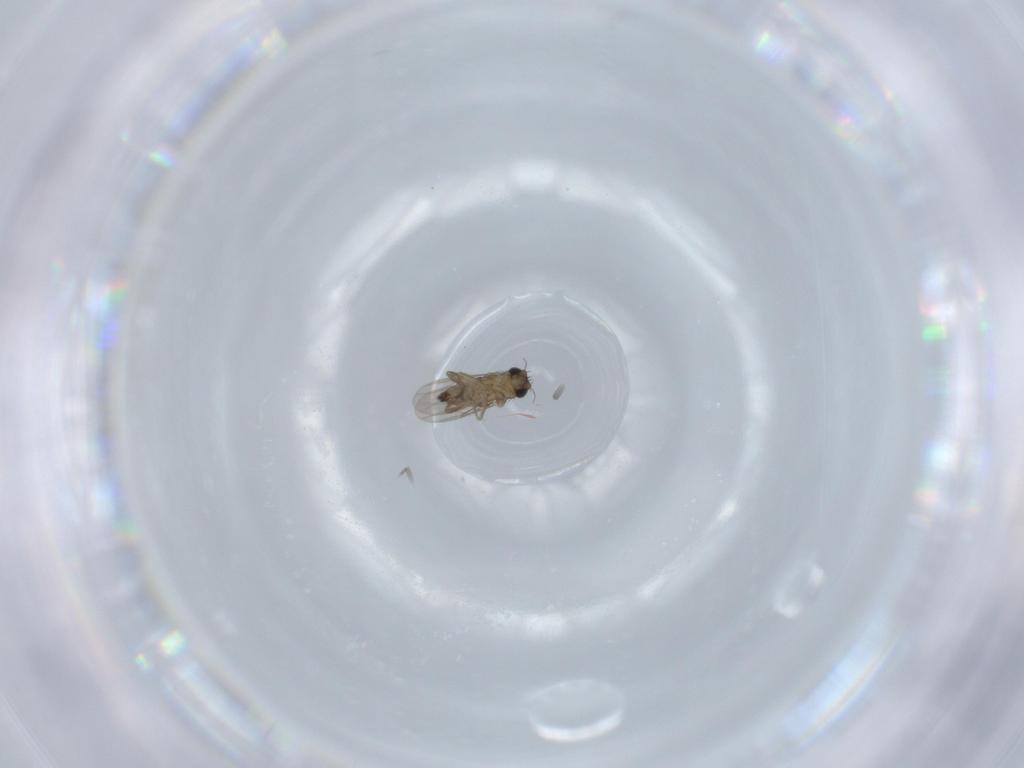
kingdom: Animalia
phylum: Arthropoda
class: Insecta
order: Diptera
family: Phoridae
